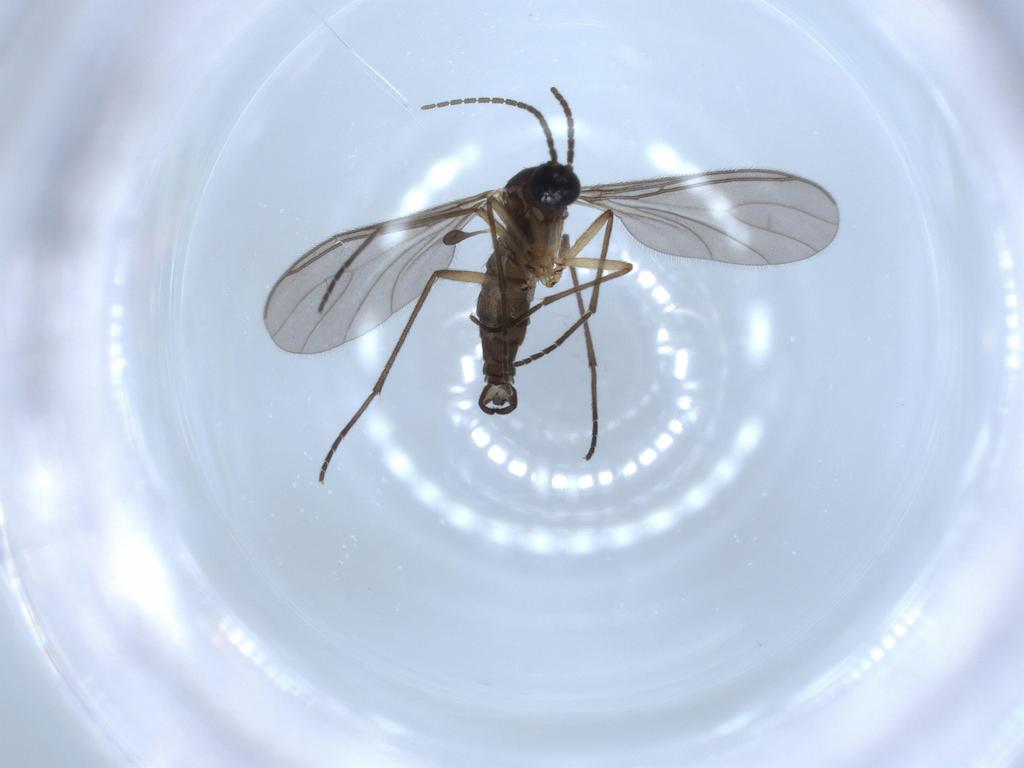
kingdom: Animalia
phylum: Arthropoda
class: Insecta
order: Diptera
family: Sciaridae
